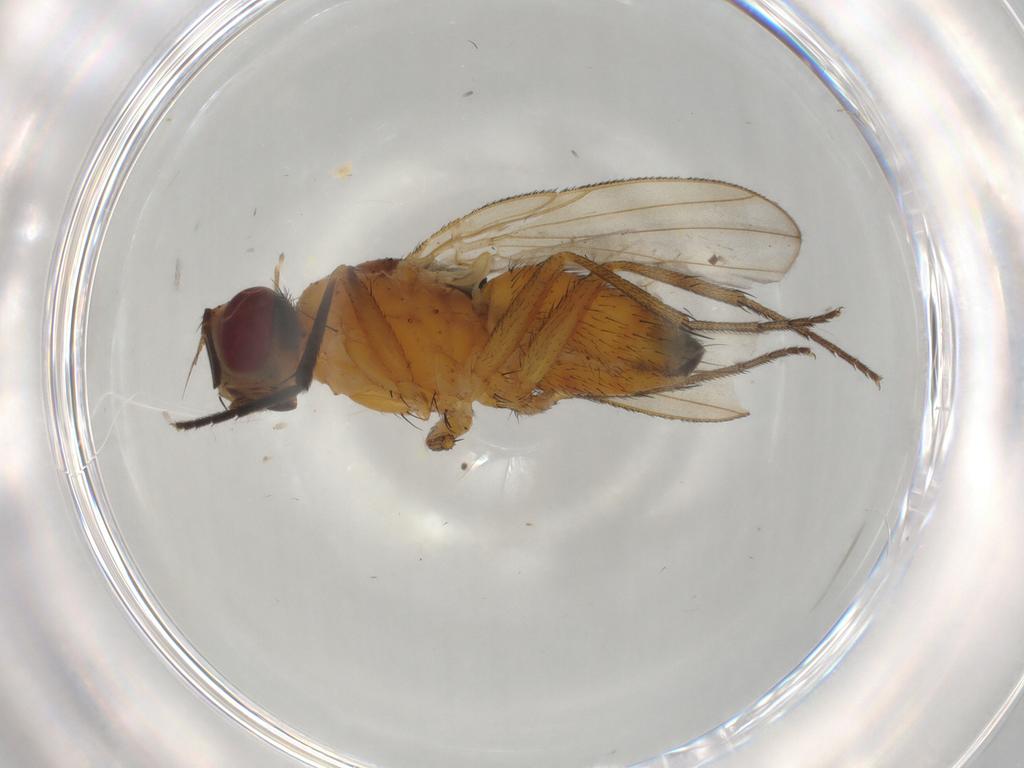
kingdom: Animalia
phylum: Arthropoda
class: Insecta
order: Diptera
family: Muscidae
